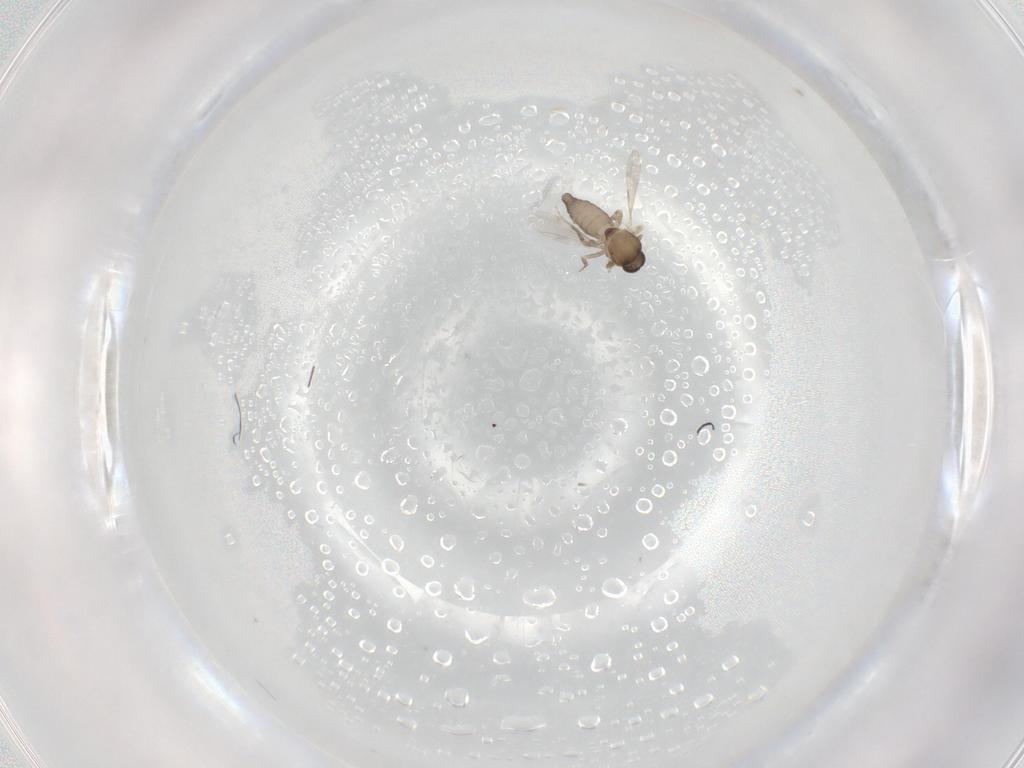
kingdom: Animalia
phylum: Arthropoda
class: Insecta
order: Diptera
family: Ceratopogonidae
